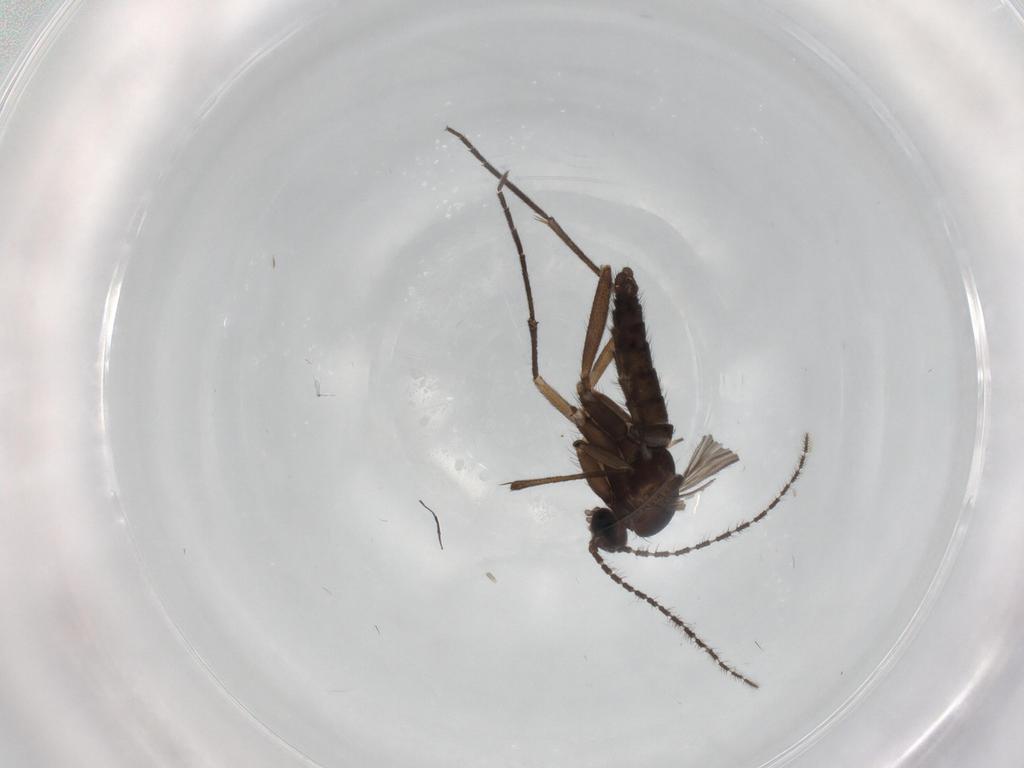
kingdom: Animalia
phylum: Arthropoda
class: Insecta
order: Diptera
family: Sciaridae
